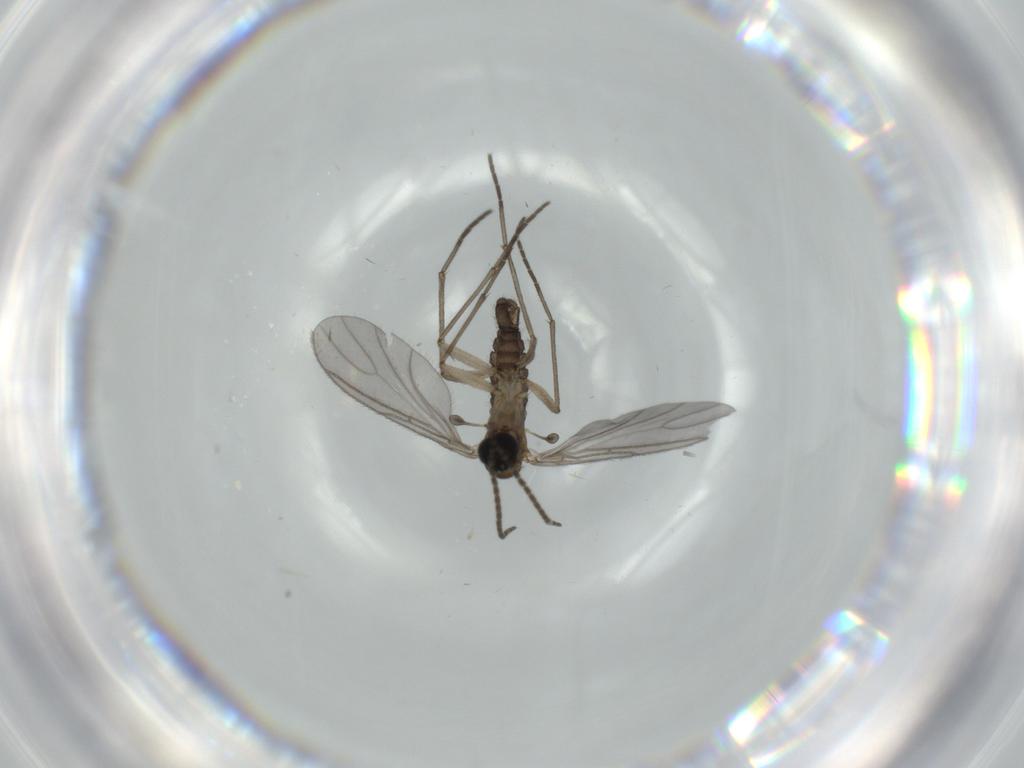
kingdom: Animalia
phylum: Arthropoda
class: Insecta
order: Diptera
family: Sciaridae
